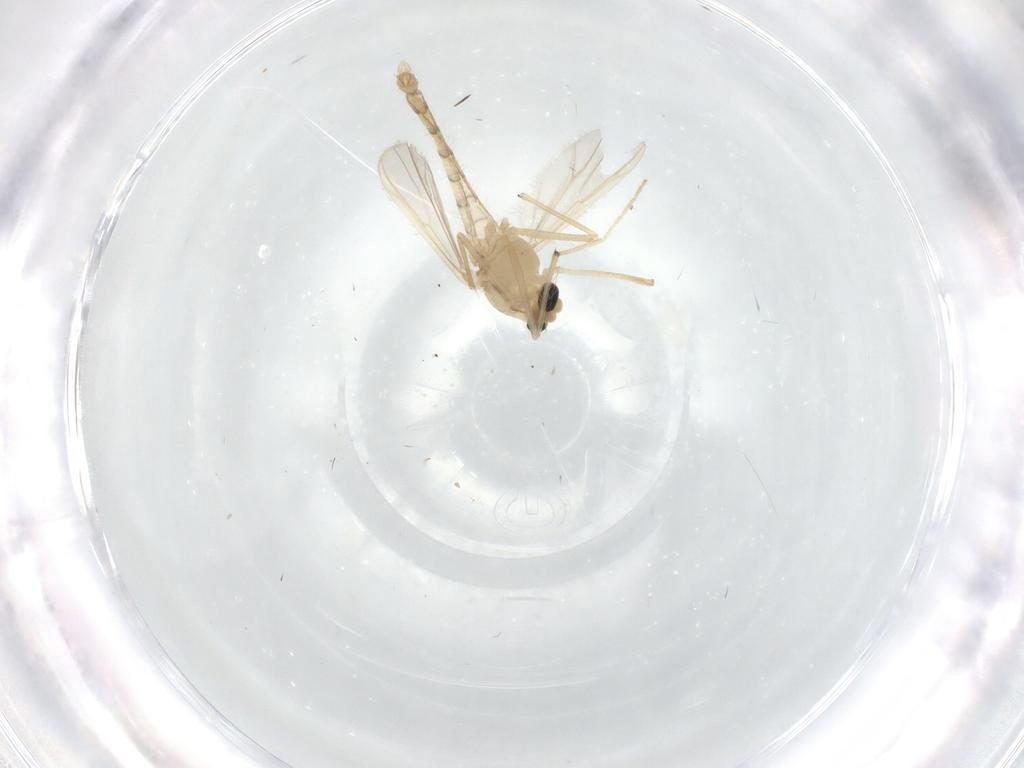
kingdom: Animalia
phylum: Arthropoda
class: Insecta
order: Diptera
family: Chironomidae
